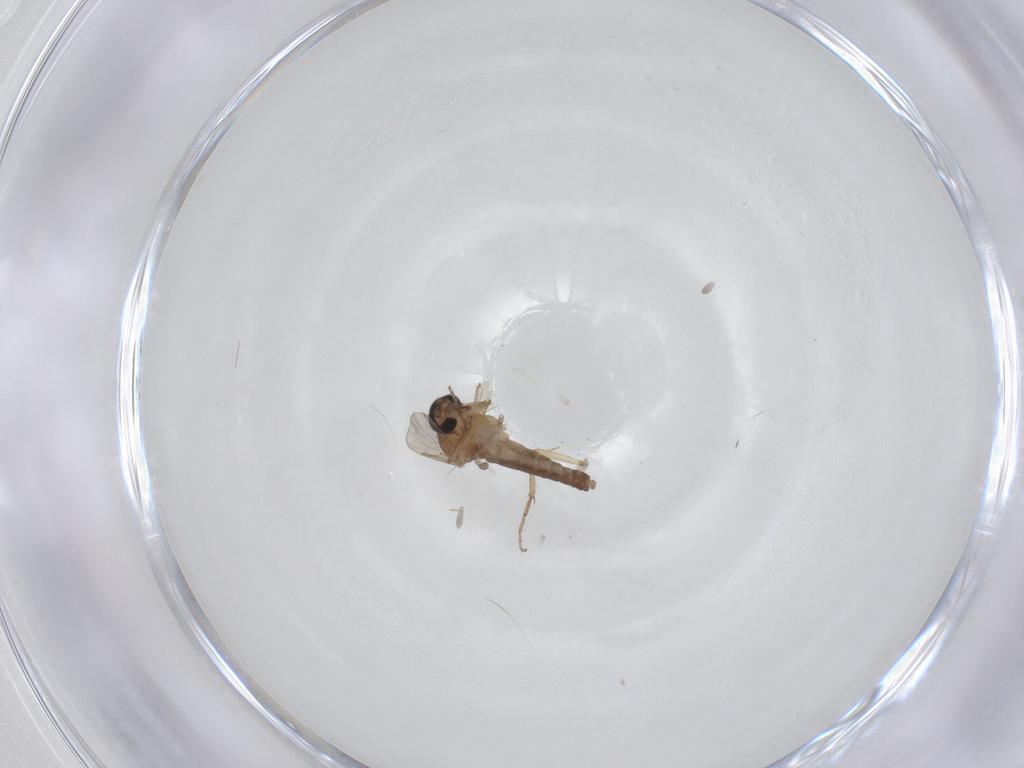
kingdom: Animalia
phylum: Arthropoda
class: Insecta
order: Diptera
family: Ceratopogonidae
